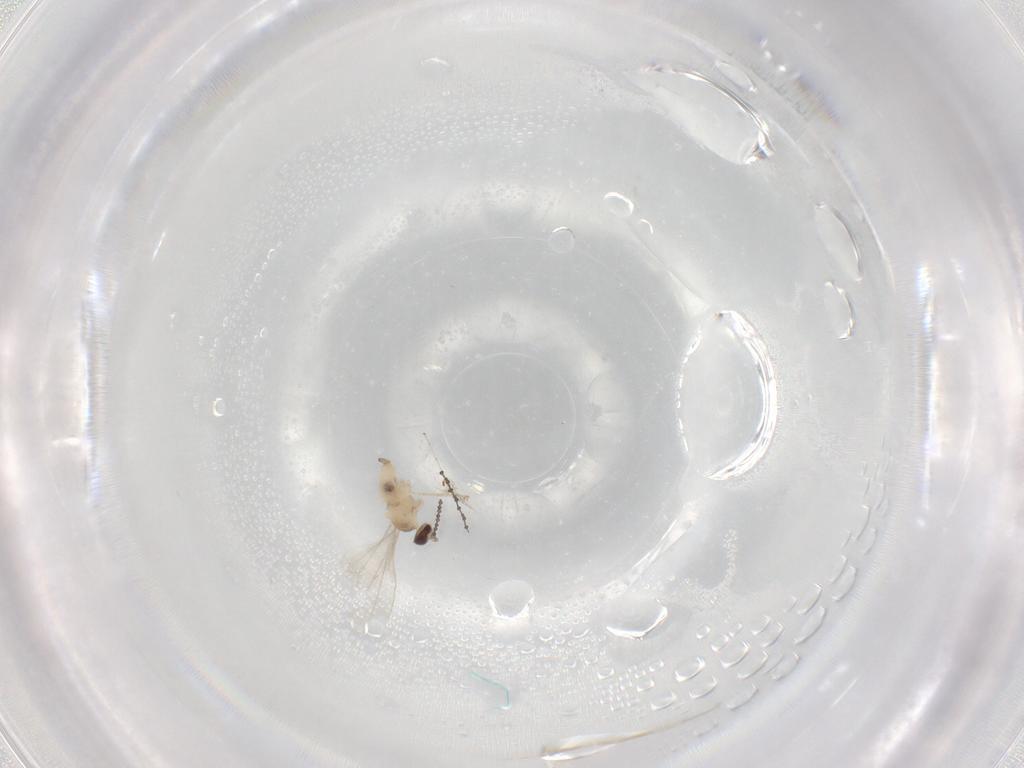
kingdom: Animalia
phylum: Arthropoda
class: Insecta
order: Diptera
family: Cecidomyiidae
